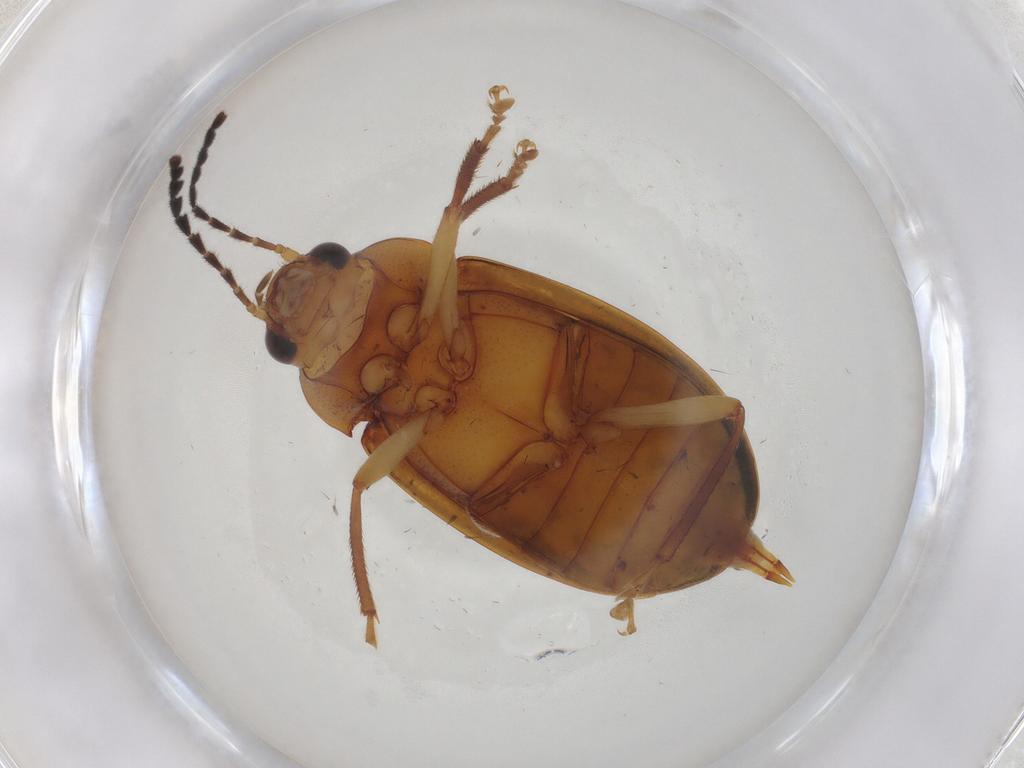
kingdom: Animalia
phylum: Arthropoda
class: Insecta
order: Coleoptera
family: Ptilodactylidae
